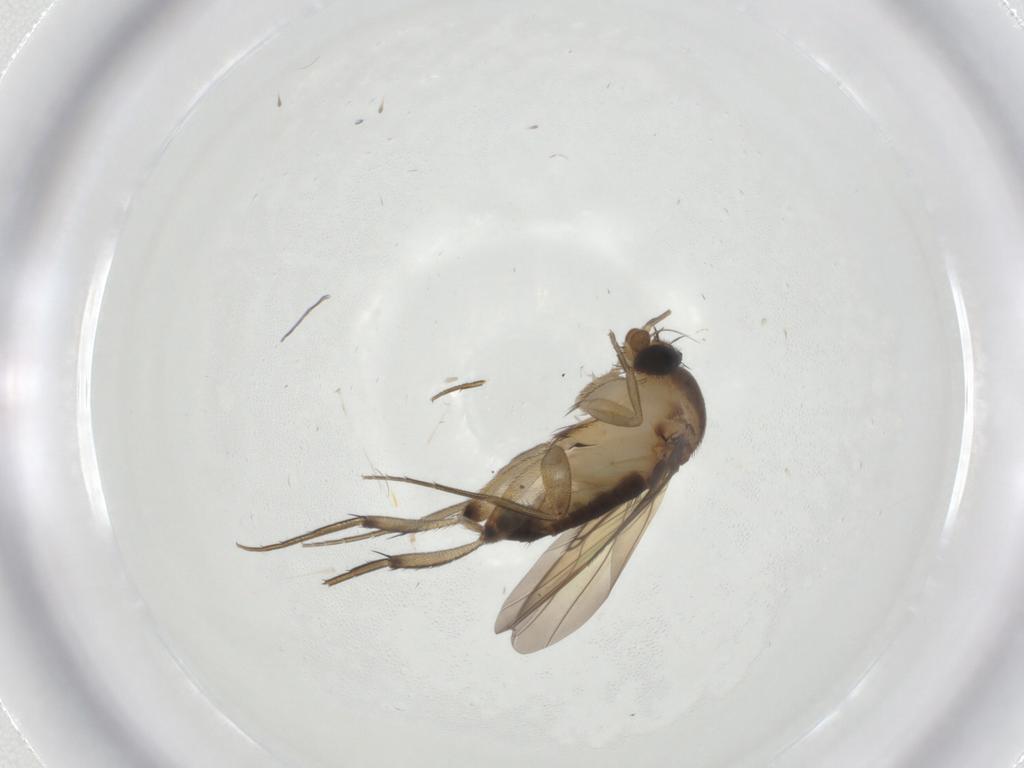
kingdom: Animalia
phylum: Arthropoda
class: Insecta
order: Diptera
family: Phoridae
